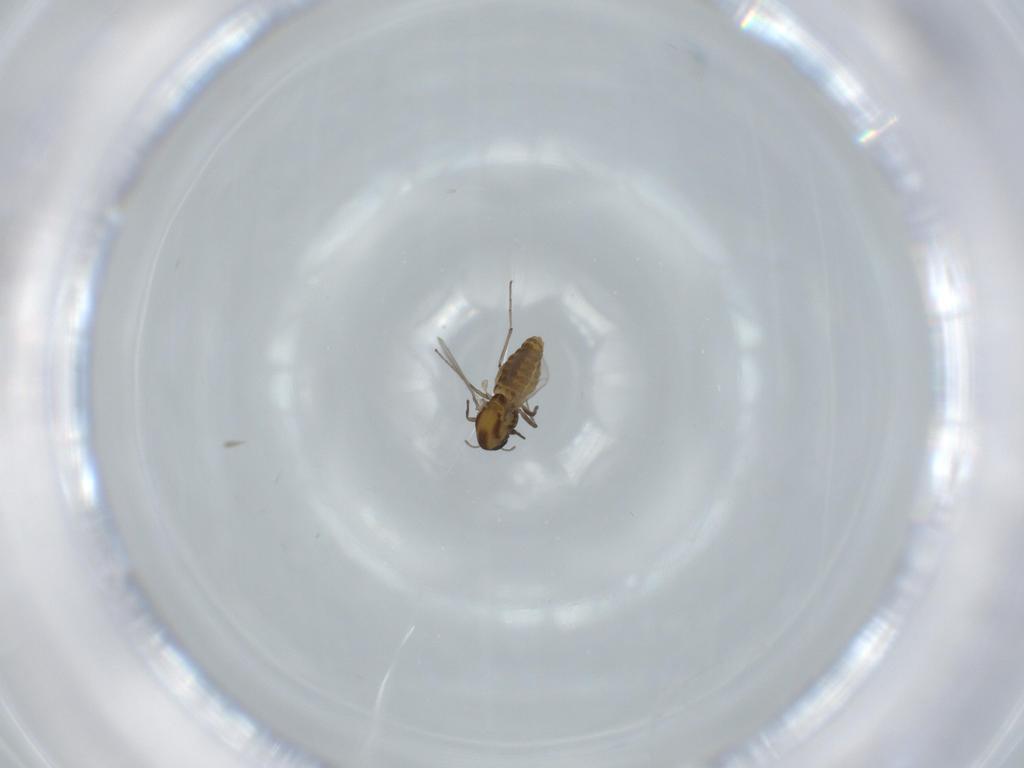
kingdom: Animalia
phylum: Arthropoda
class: Insecta
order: Diptera
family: Chironomidae
